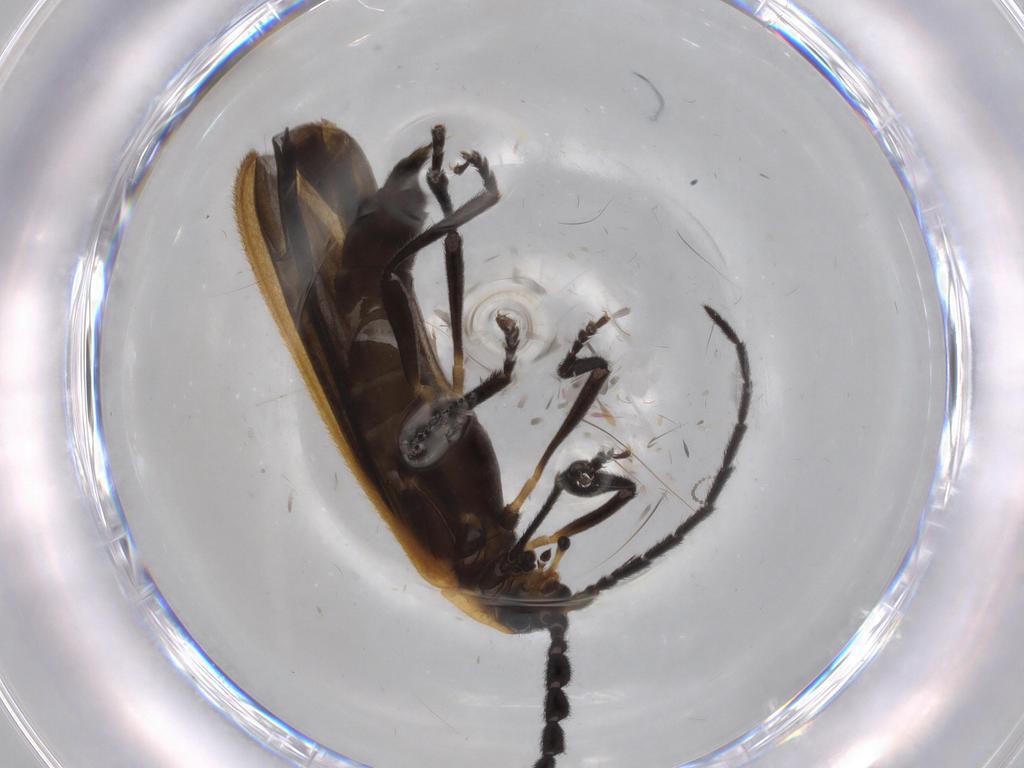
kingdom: Animalia
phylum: Arthropoda
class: Insecta
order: Coleoptera
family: Lycidae
